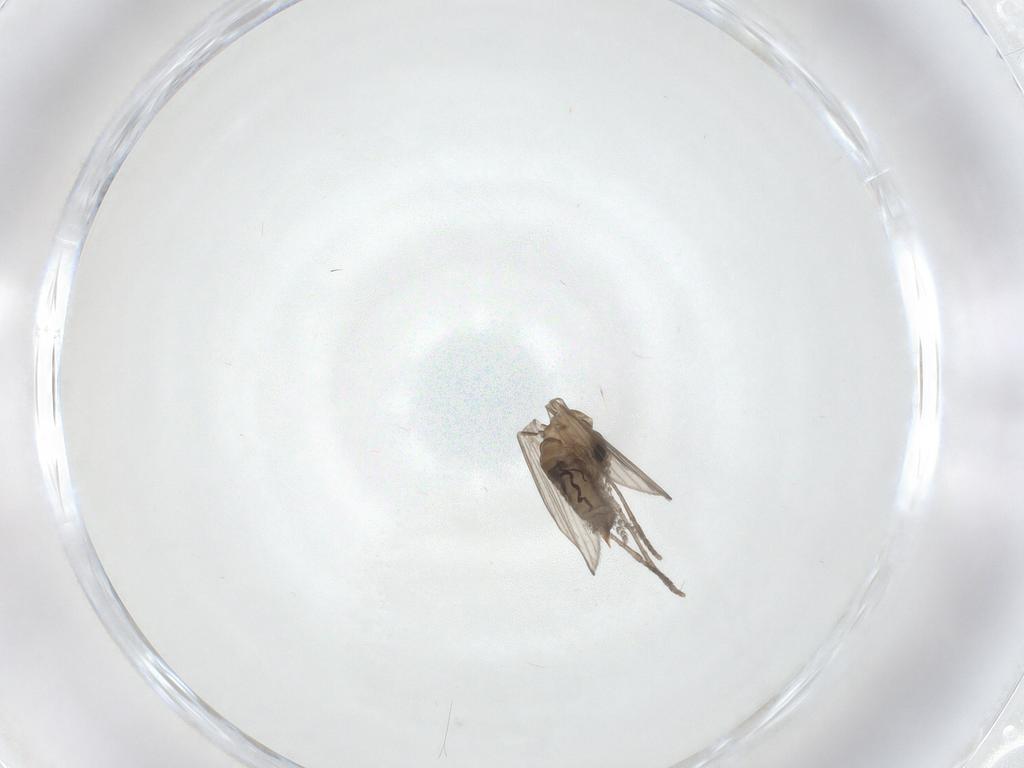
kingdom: Animalia
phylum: Arthropoda
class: Insecta
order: Diptera
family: Psychodidae
